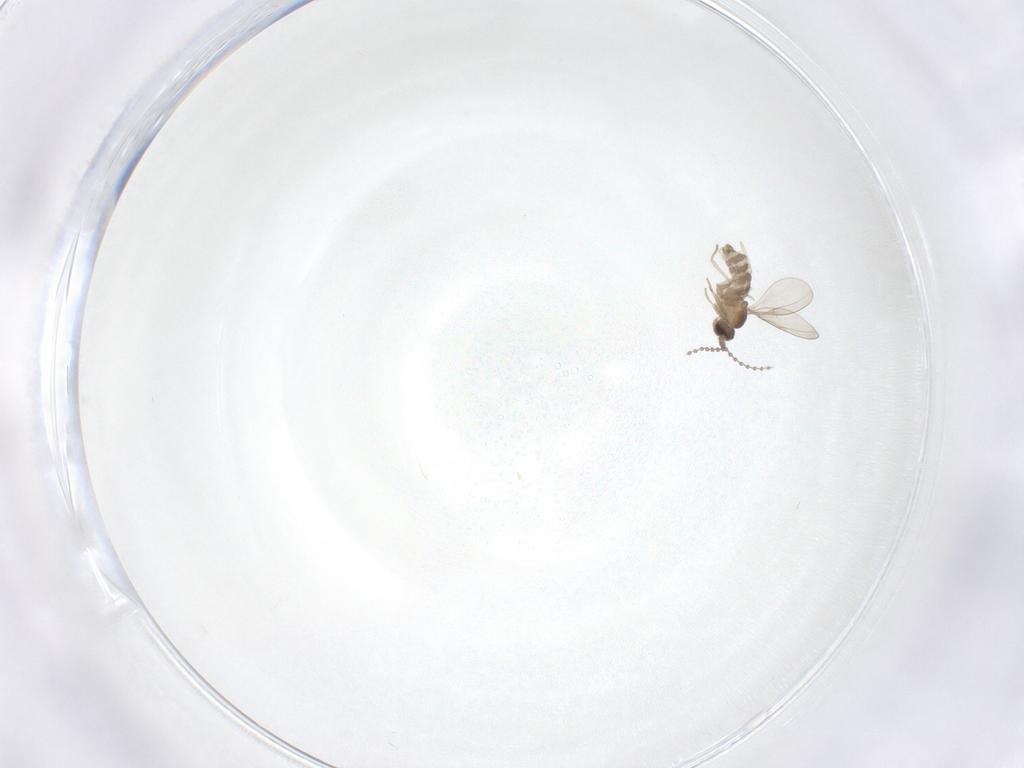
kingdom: Animalia
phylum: Arthropoda
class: Insecta
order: Diptera
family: Cecidomyiidae
